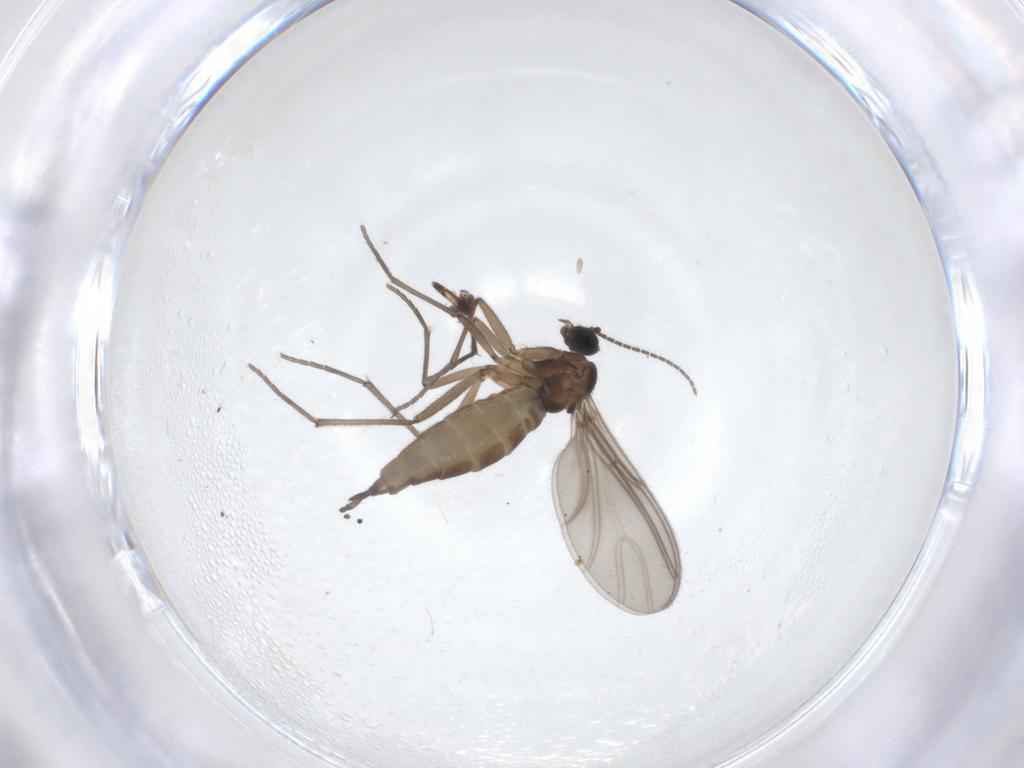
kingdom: Animalia
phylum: Arthropoda
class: Insecta
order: Diptera
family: Sciaridae
